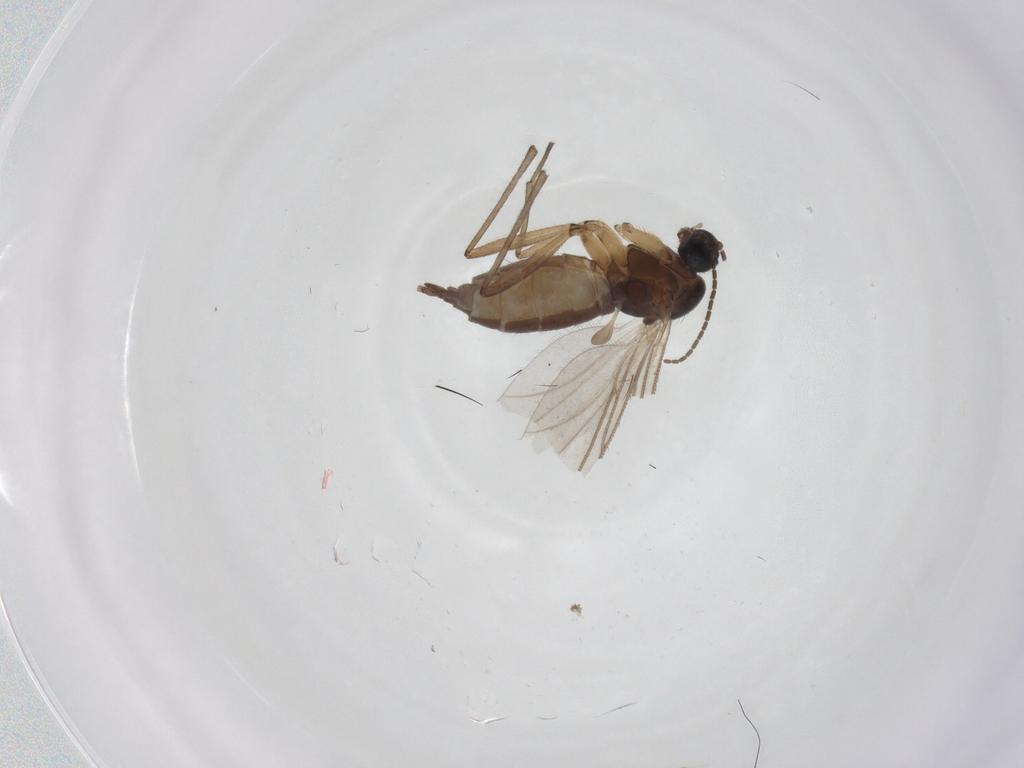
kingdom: Animalia
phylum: Arthropoda
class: Insecta
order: Diptera
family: Sciaridae
